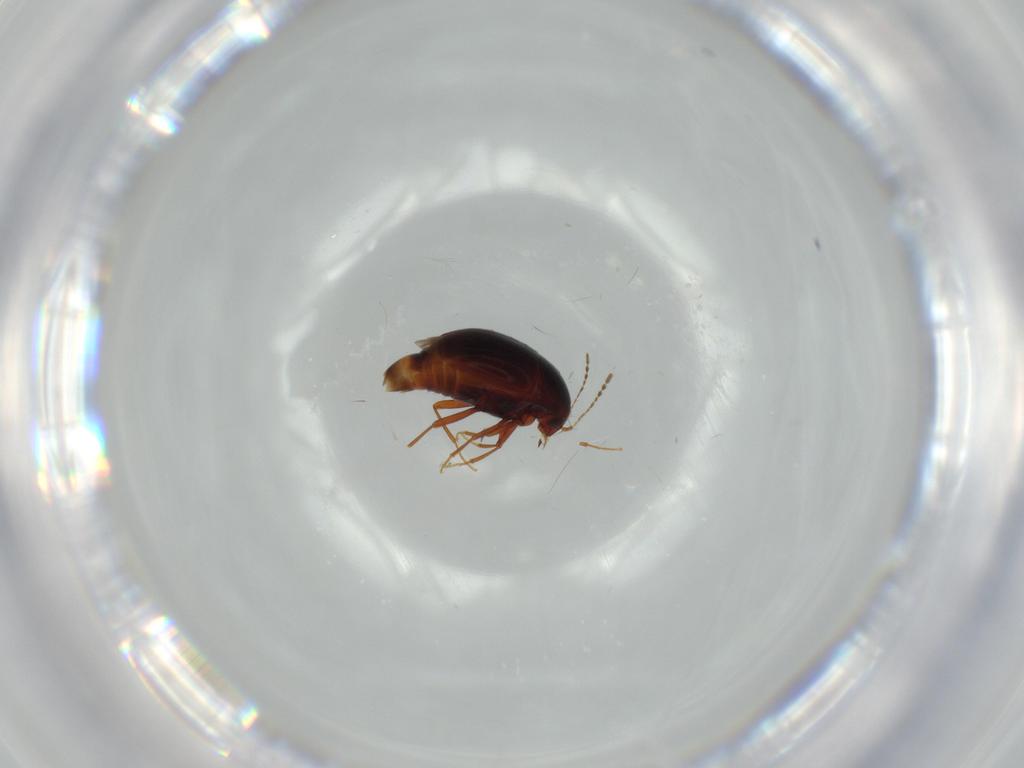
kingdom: Animalia
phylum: Arthropoda
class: Insecta
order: Coleoptera
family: Staphylinidae
